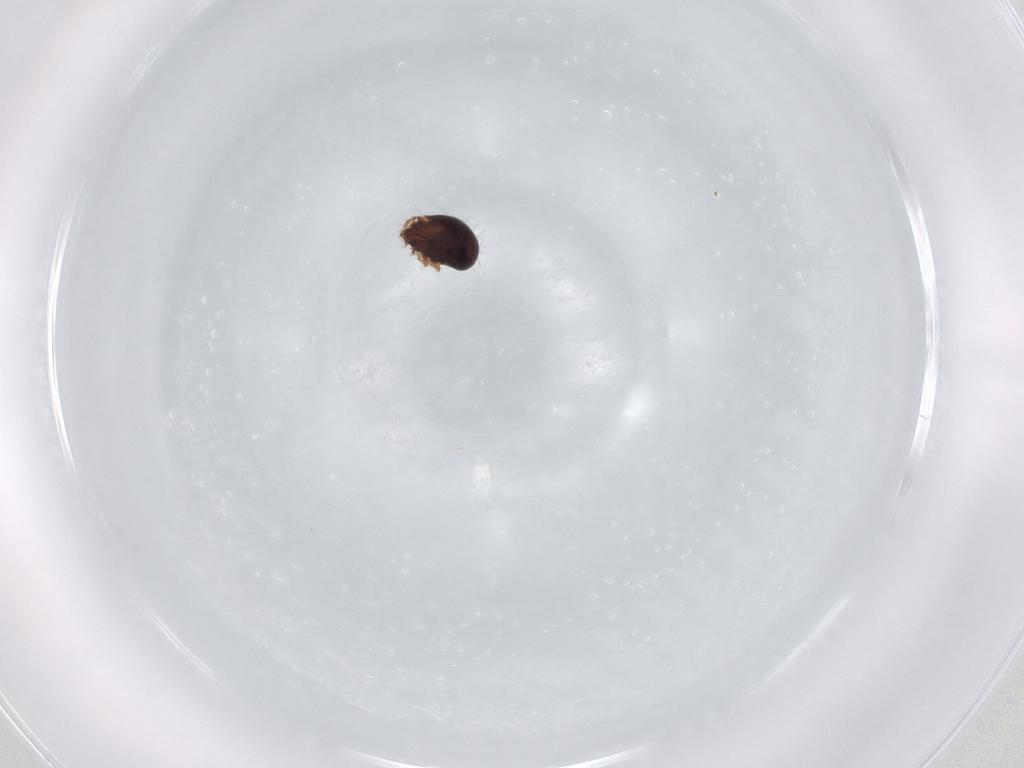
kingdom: Animalia
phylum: Arthropoda
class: Arachnida
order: Sarcoptiformes
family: Humerobatidae
